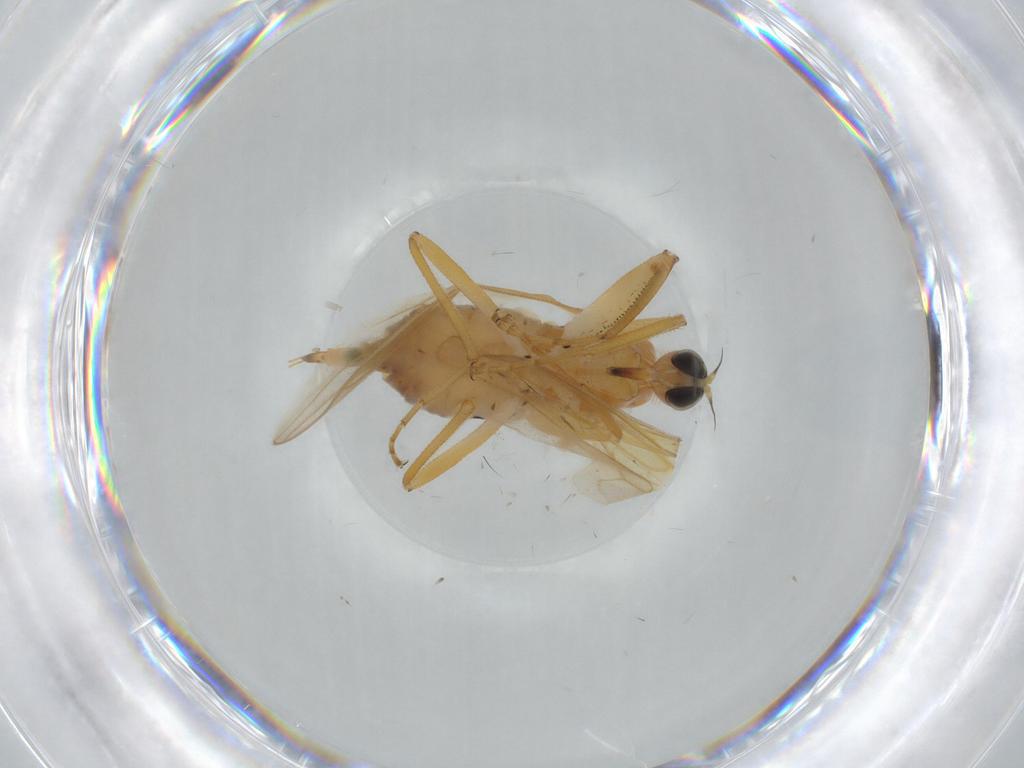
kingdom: Animalia
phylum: Arthropoda
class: Insecta
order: Diptera
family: Hybotidae
